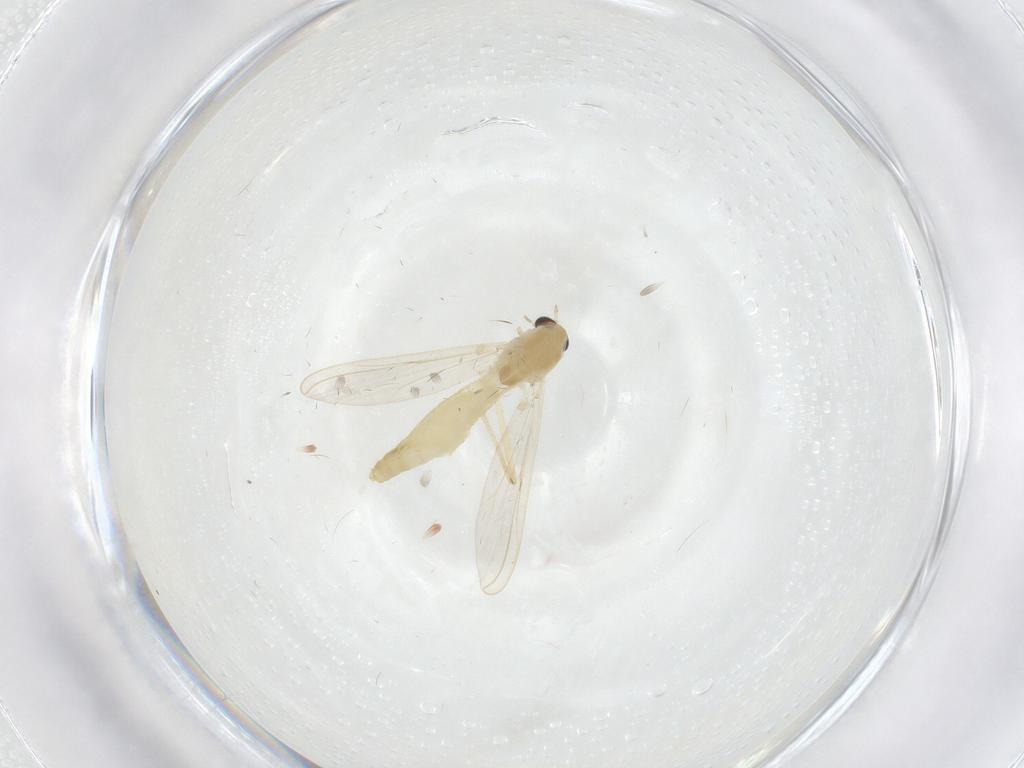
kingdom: Animalia
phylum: Arthropoda
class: Insecta
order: Diptera
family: Chironomidae
